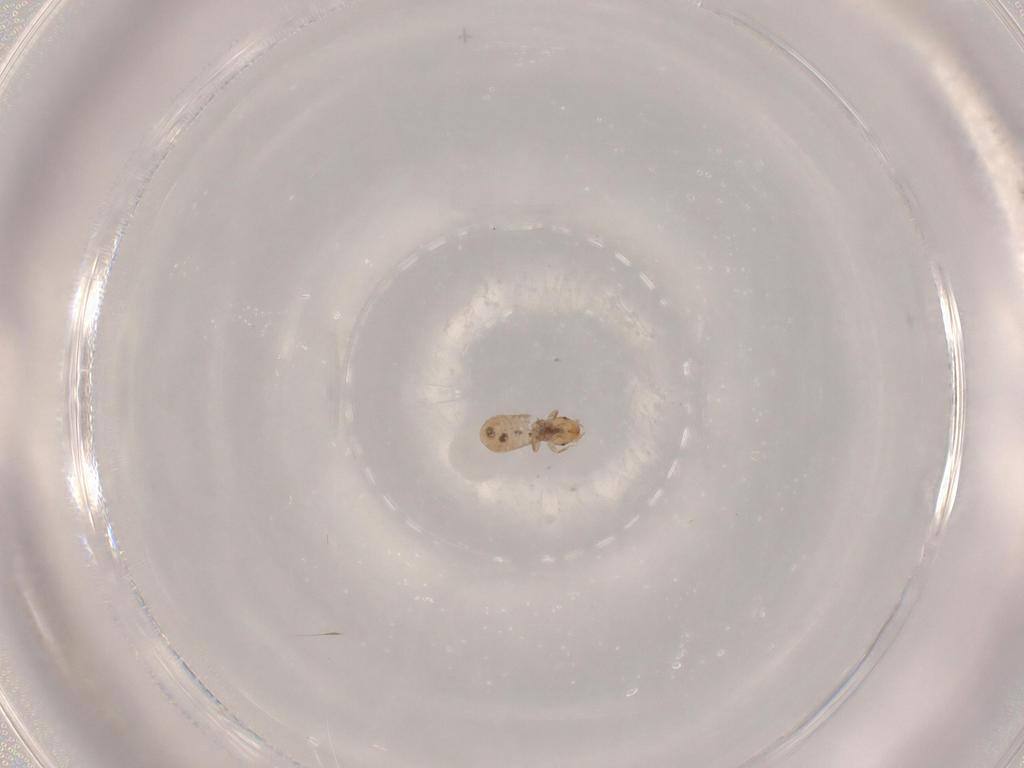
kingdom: Animalia
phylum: Arthropoda
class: Insecta
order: Psocodea
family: Liposcelididae
